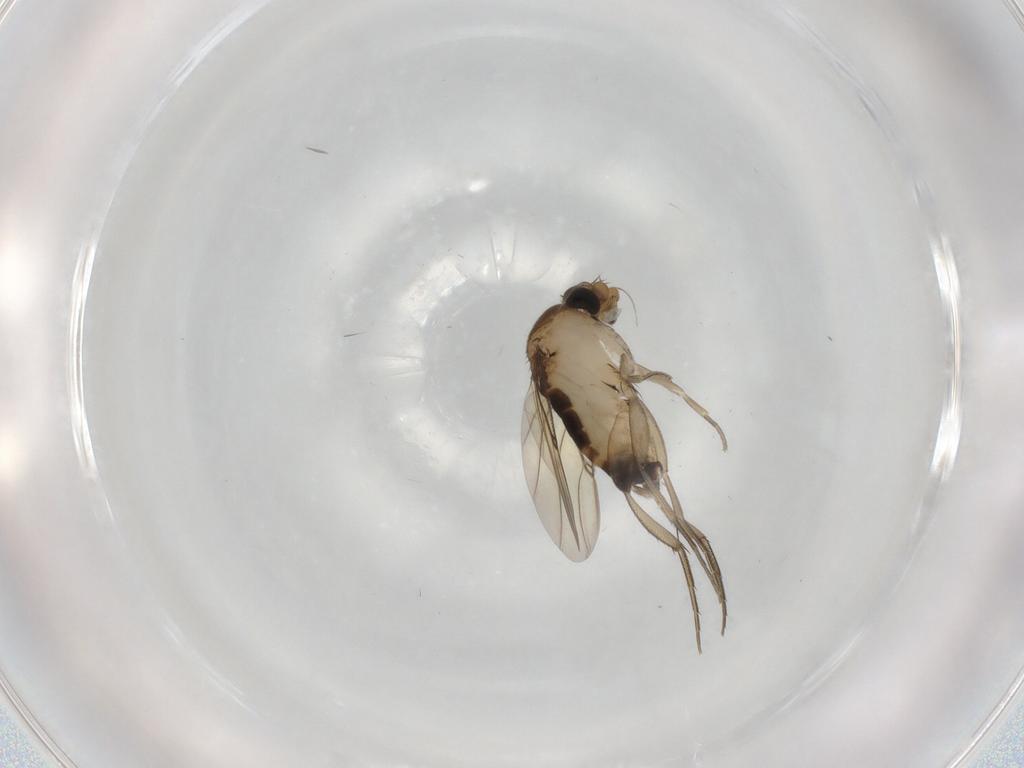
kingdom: Animalia
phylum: Arthropoda
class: Insecta
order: Diptera
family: Phoridae
